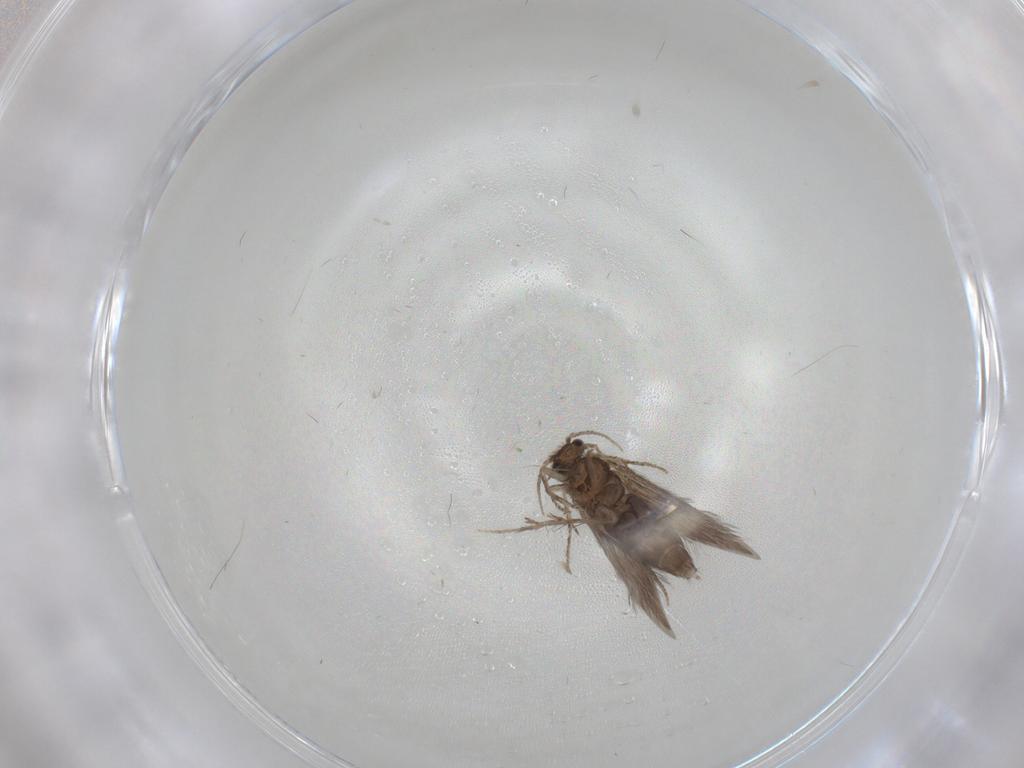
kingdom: Animalia
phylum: Arthropoda
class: Insecta
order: Trichoptera
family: Hydroptilidae
